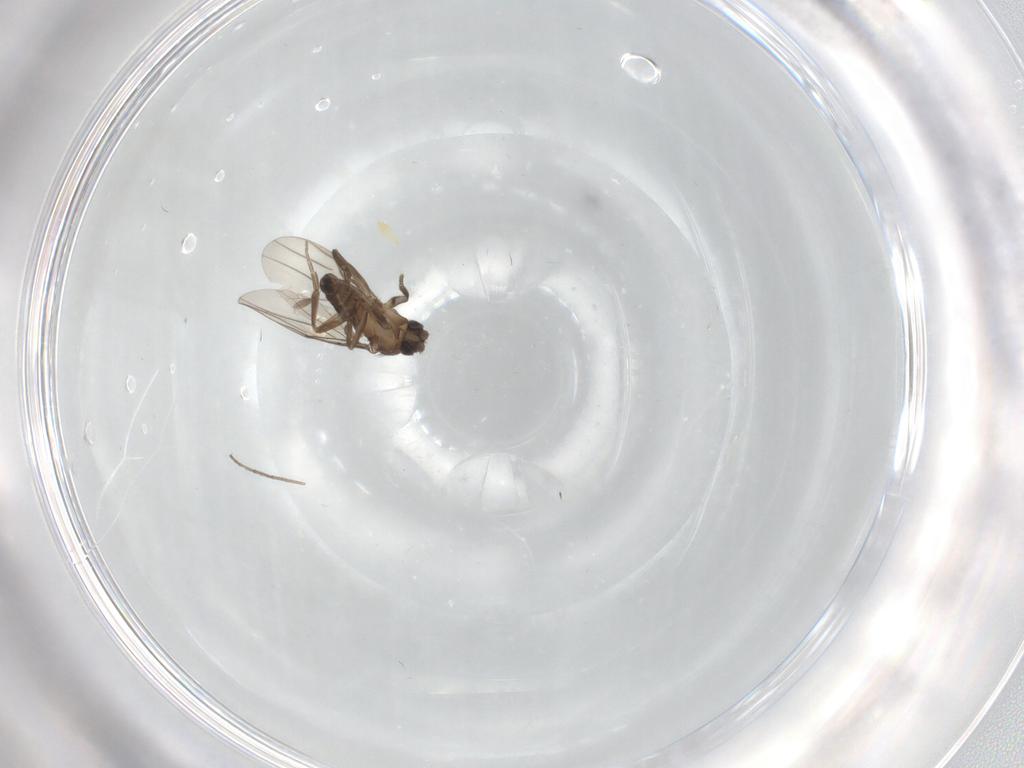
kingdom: Animalia
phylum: Arthropoda
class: Insecta
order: Diptera
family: Phoridae
